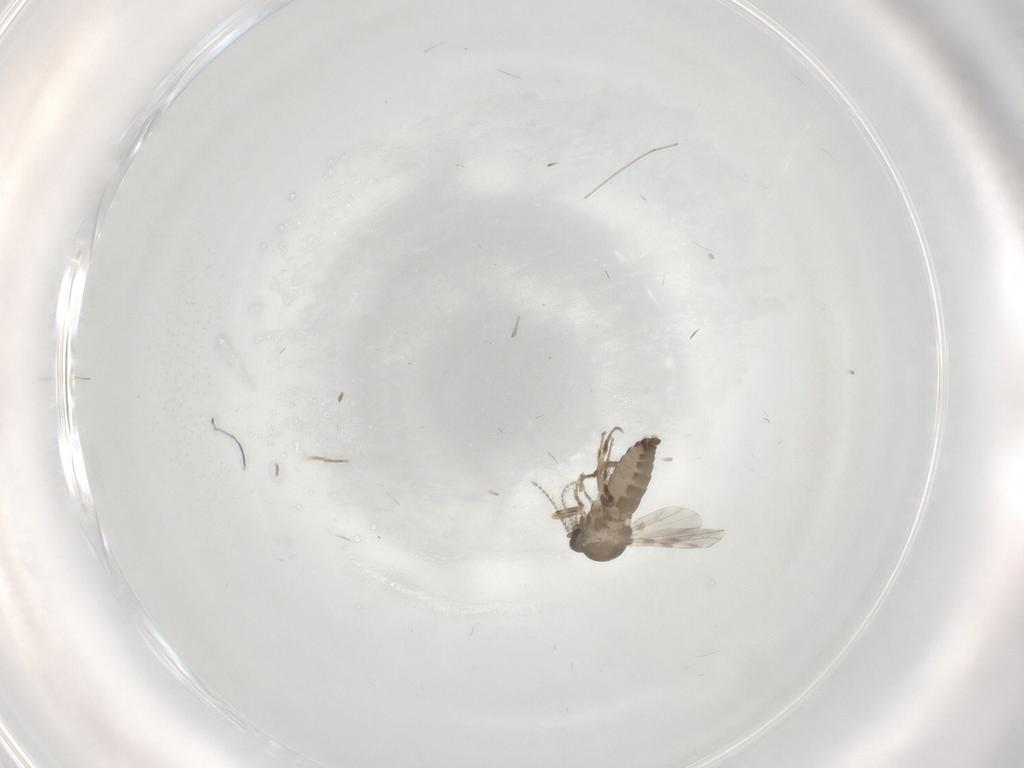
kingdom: Animalia
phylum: Arthropoda
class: Insecta
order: Diptera
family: Ceratopogonidae
